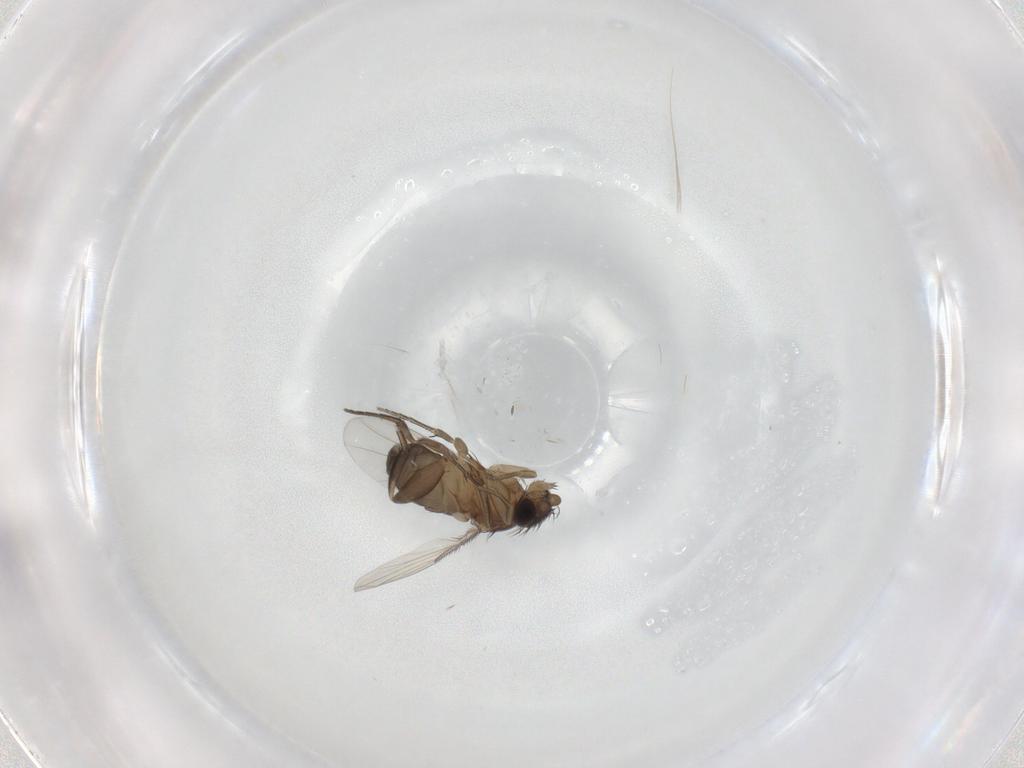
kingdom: Animalia
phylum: Arthropoda
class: Insecta
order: Diptera
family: Phoridae
